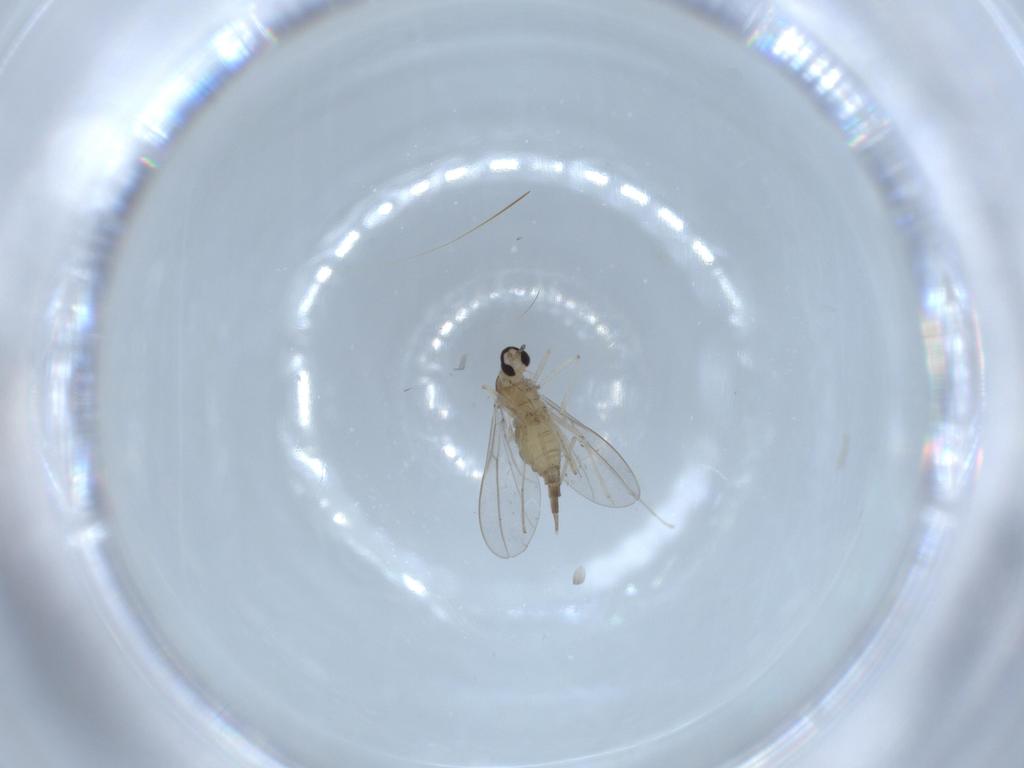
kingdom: Animalia
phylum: Arthropoda
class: Insecta
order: Diptera
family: Cecidomyiidae
